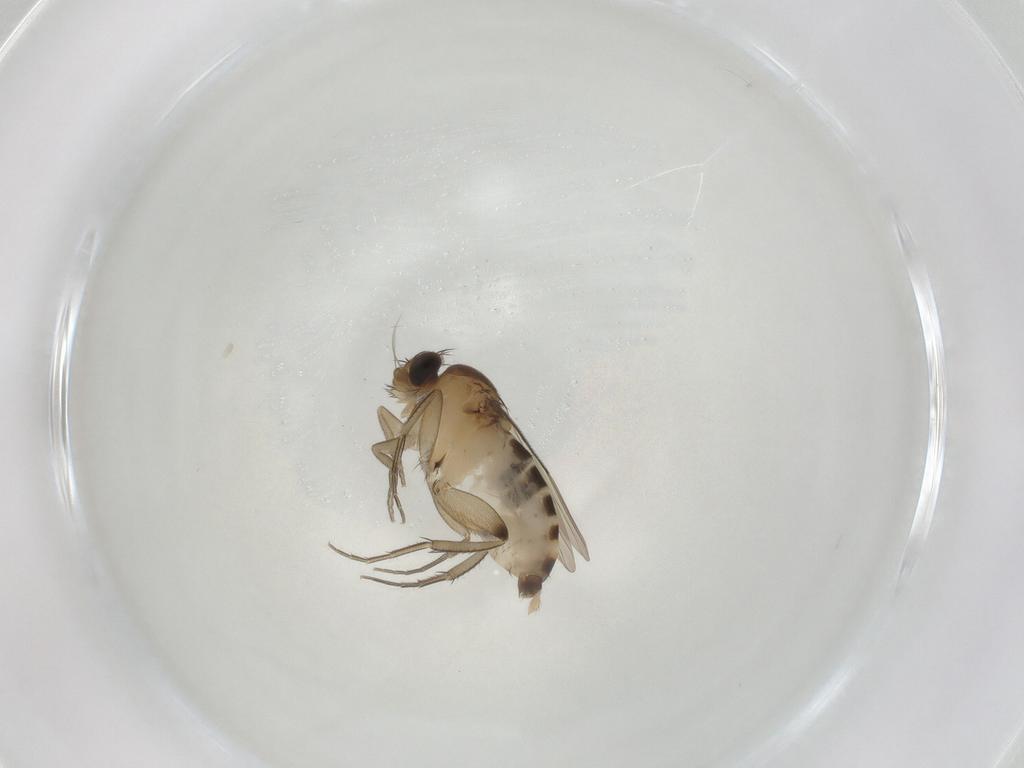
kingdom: Animalia
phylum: Arthropoda
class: Insecta
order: Diptera
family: Phoridae
